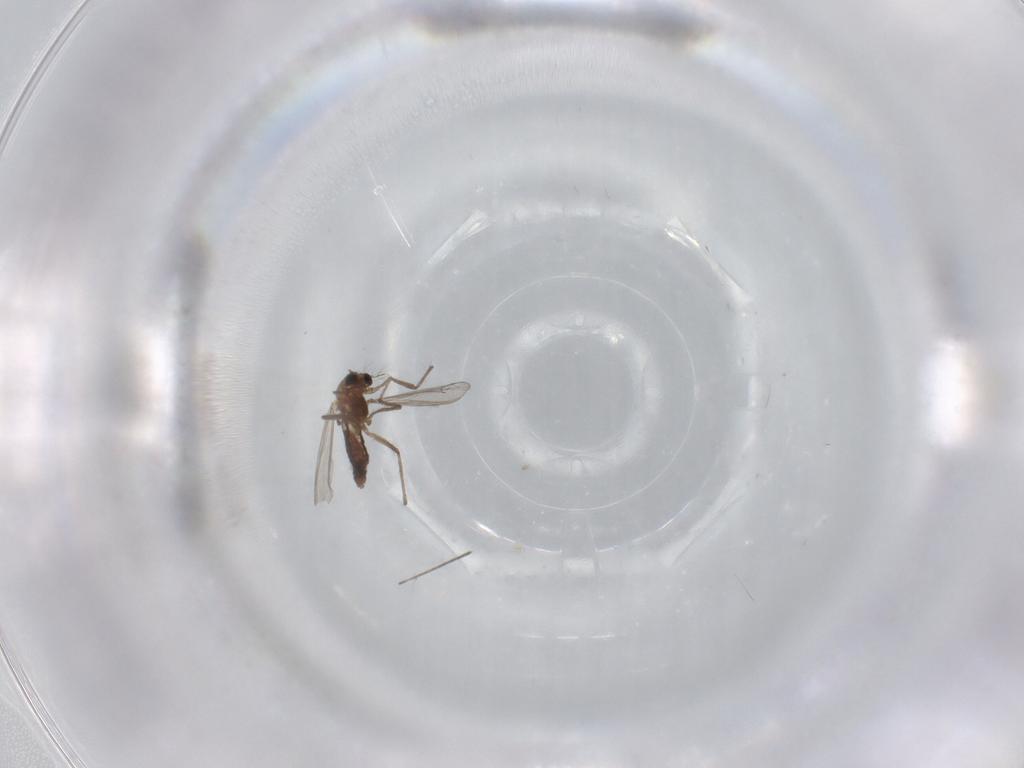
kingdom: Animalia
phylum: Arthropoda
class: Insecta
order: Diptera
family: Chironomidae
